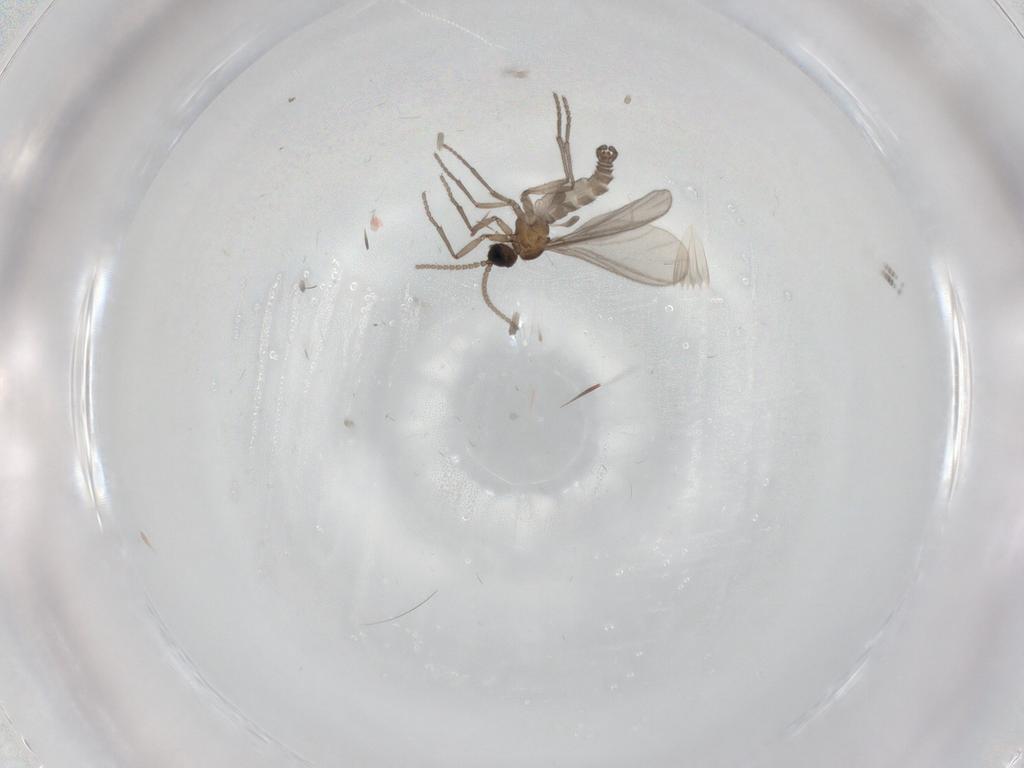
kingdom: Animalia
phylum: Arthropoda
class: Insecta
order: Diptera
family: Sciaridae
